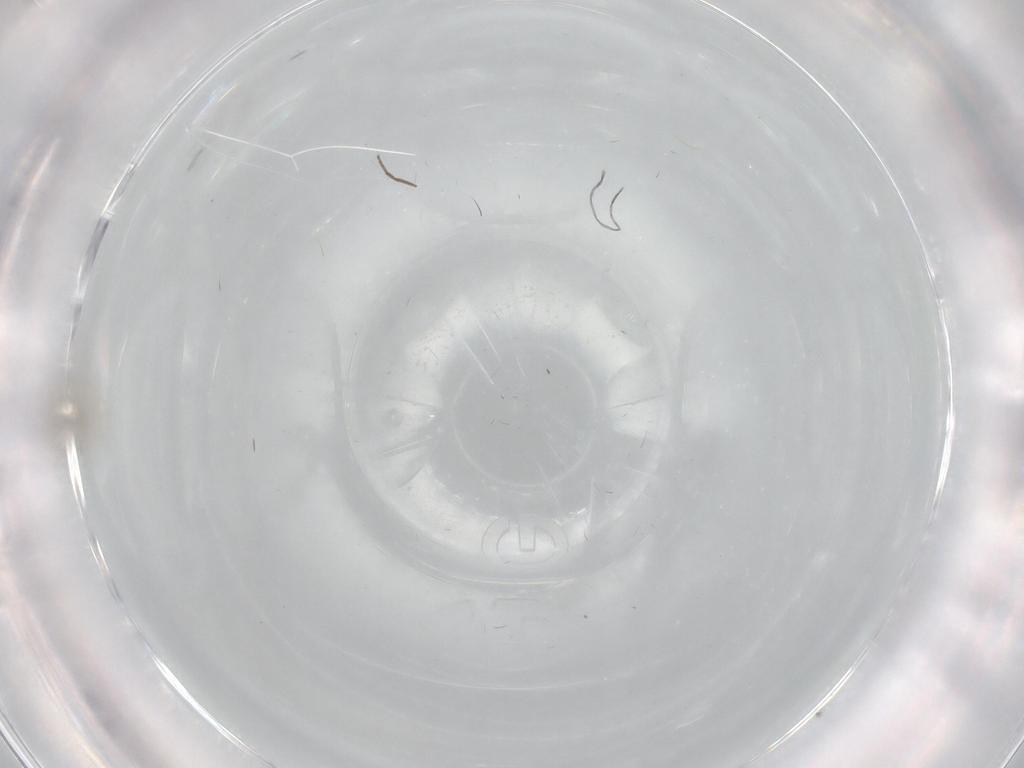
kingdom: Animalia
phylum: Arthropoda
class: Insecta
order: Diptera
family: Cecidomyiidae
